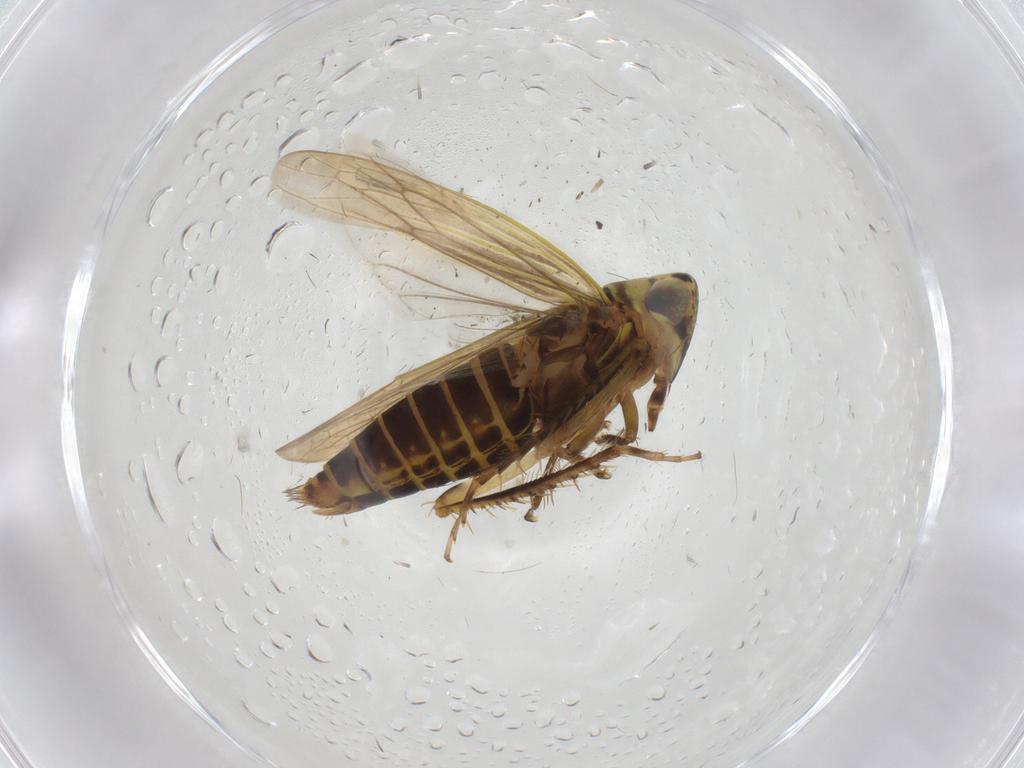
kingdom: Animalia
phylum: Arthropoda
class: Insecta
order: Hemiptera
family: Cicadellidae
